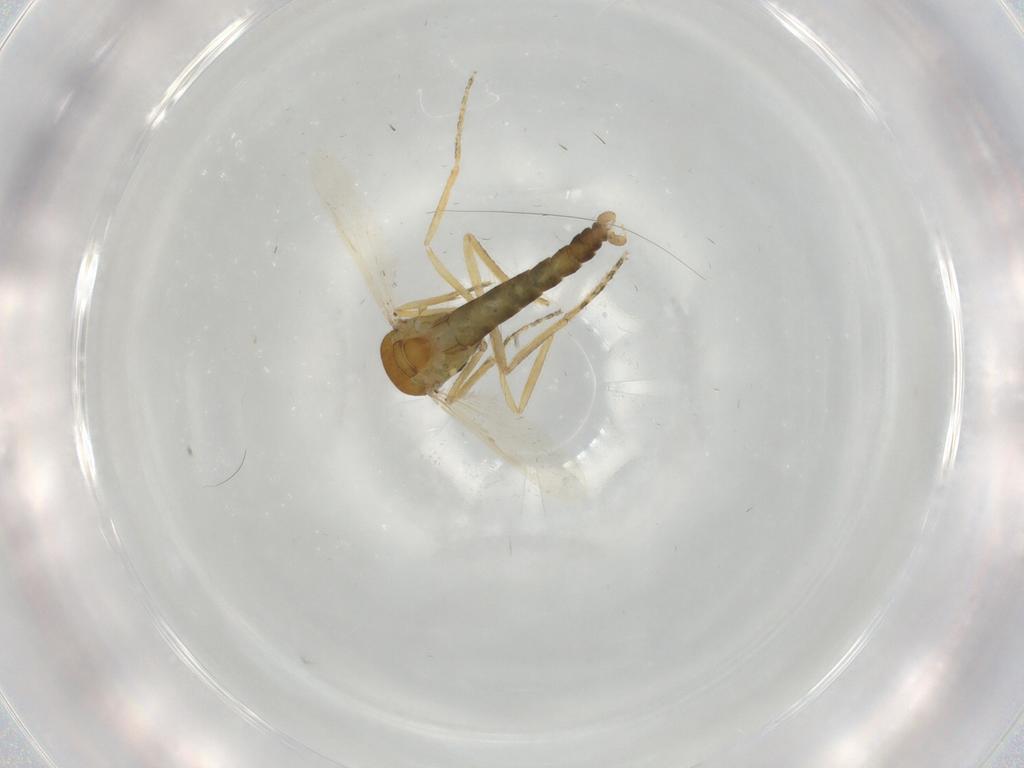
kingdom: Animalia
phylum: Arthropoda
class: Insecta
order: Diptera
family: Ceratopogonidae
